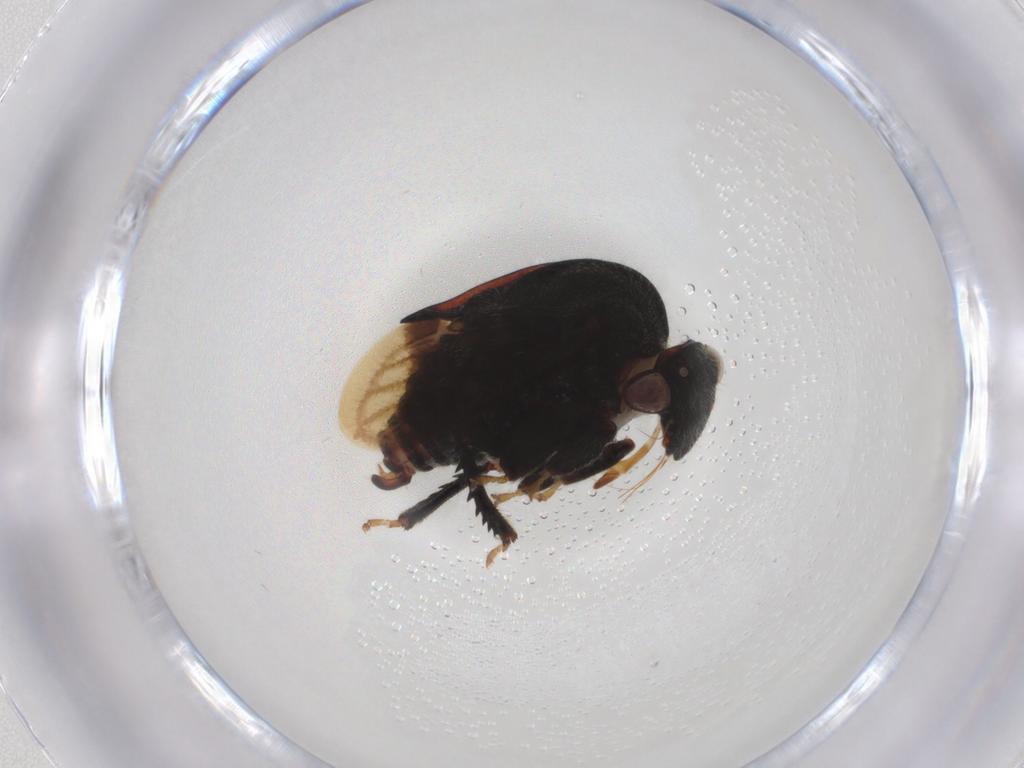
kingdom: Animalia
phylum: Arthropoda
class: Insecta
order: Hemiptera
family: Membracidae
